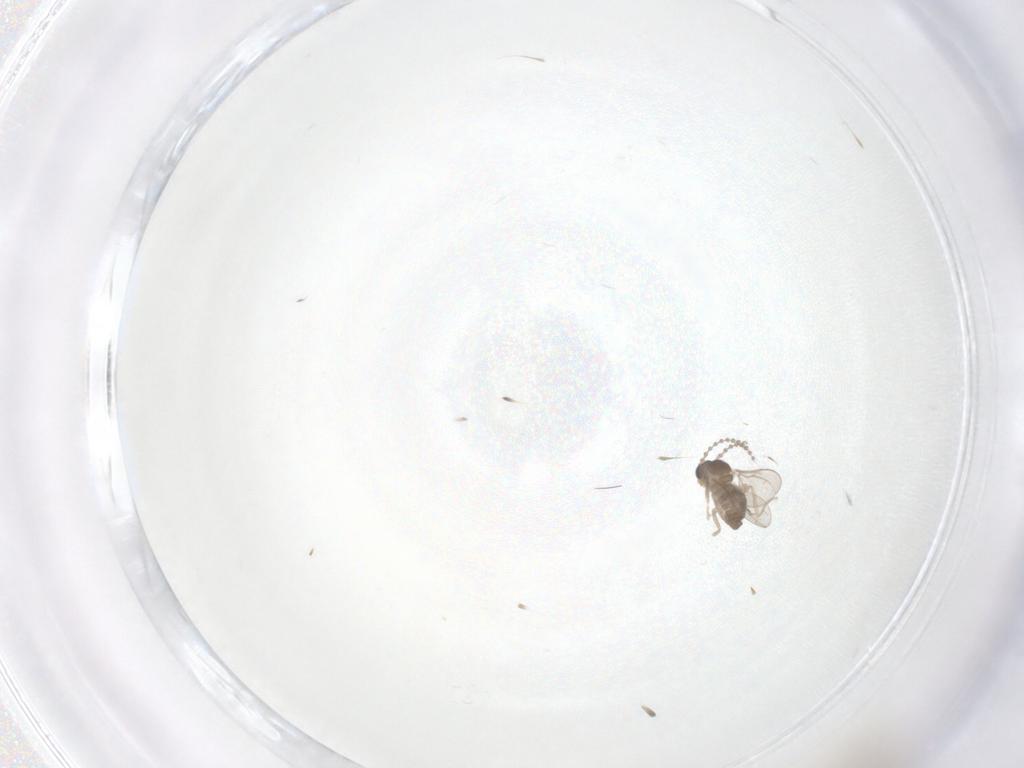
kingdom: Animalia
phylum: Arthropoda
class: Insecta
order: Diptera
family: Cecidomyiidae
